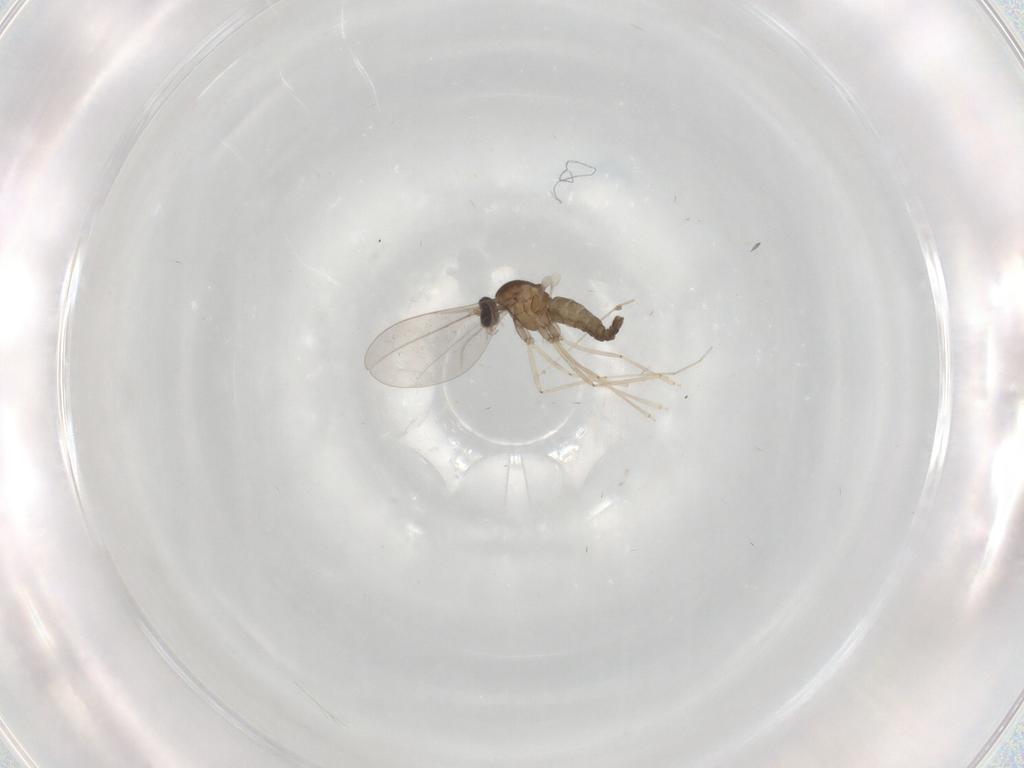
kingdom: Animalia
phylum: Arthropoda
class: Insecta
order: Diptera
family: Cecidomyiidae
